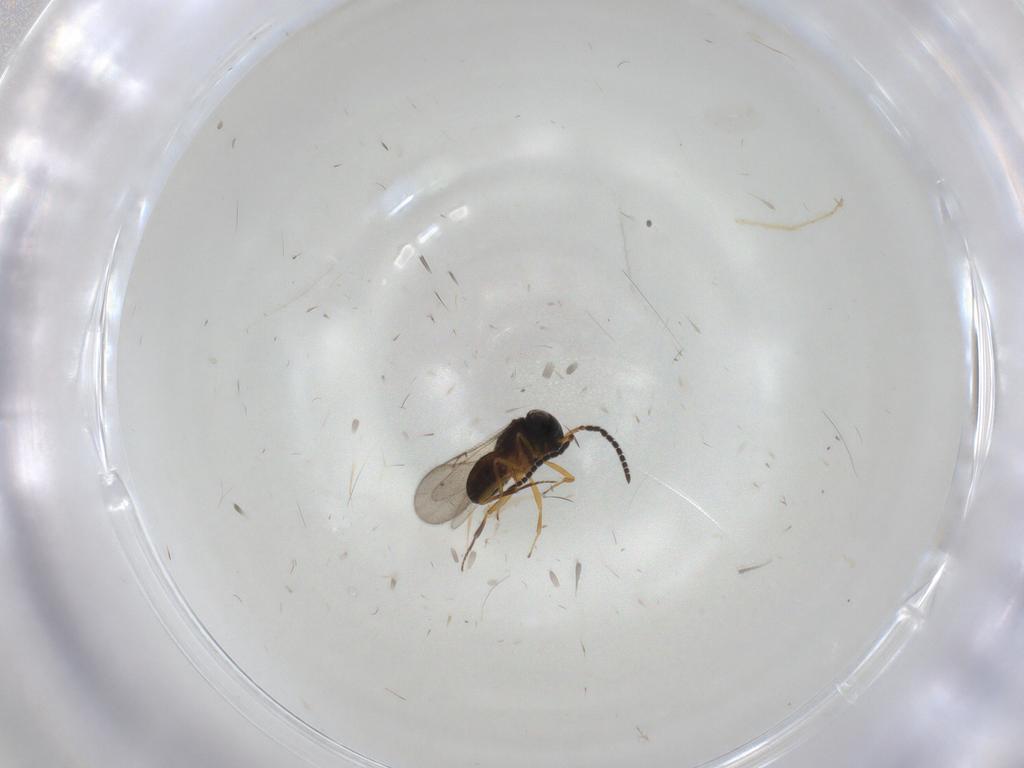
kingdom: Animalia
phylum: Arthropoda
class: Insecta
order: Hymenoptera
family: Scelionidae
